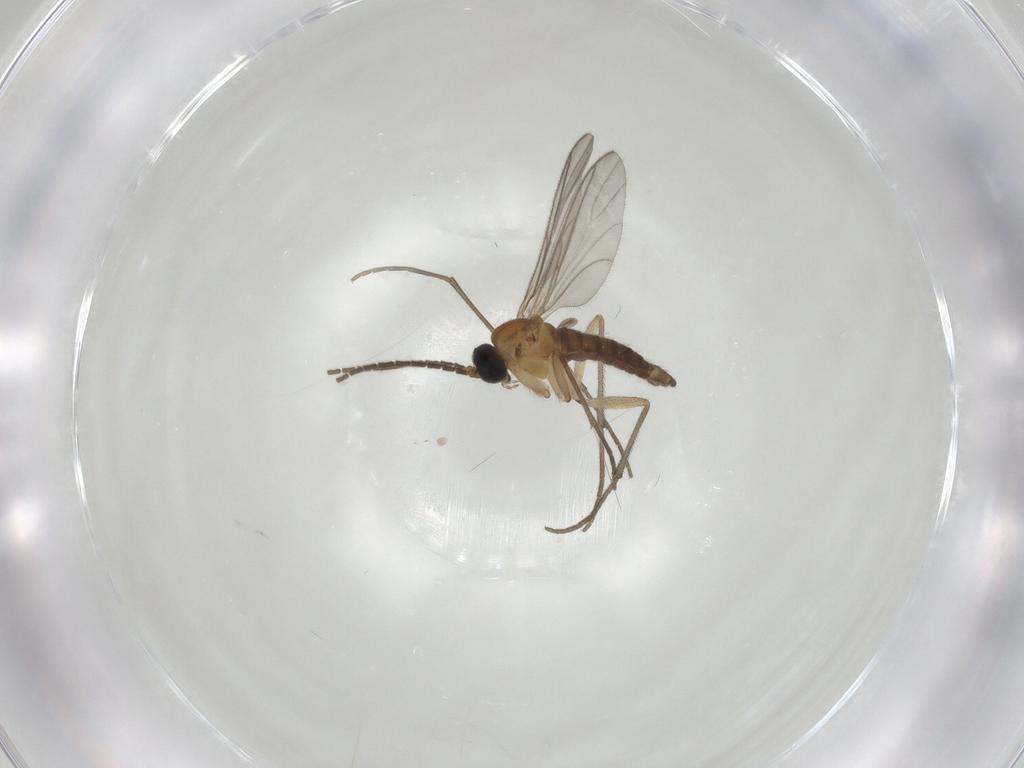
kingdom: Animalia
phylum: Arthropoda
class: Insecta
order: Diptera
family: Sciaridae
